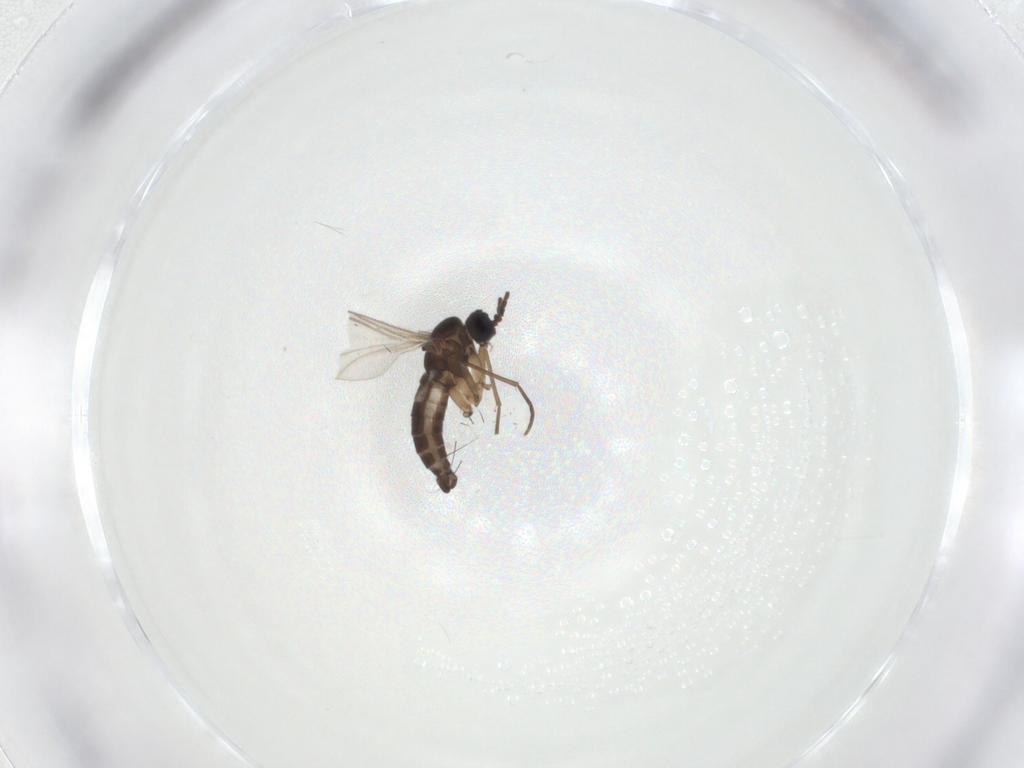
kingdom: Animalia
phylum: Arthropoda
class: Insecta
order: Diptera
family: Sciaridae
